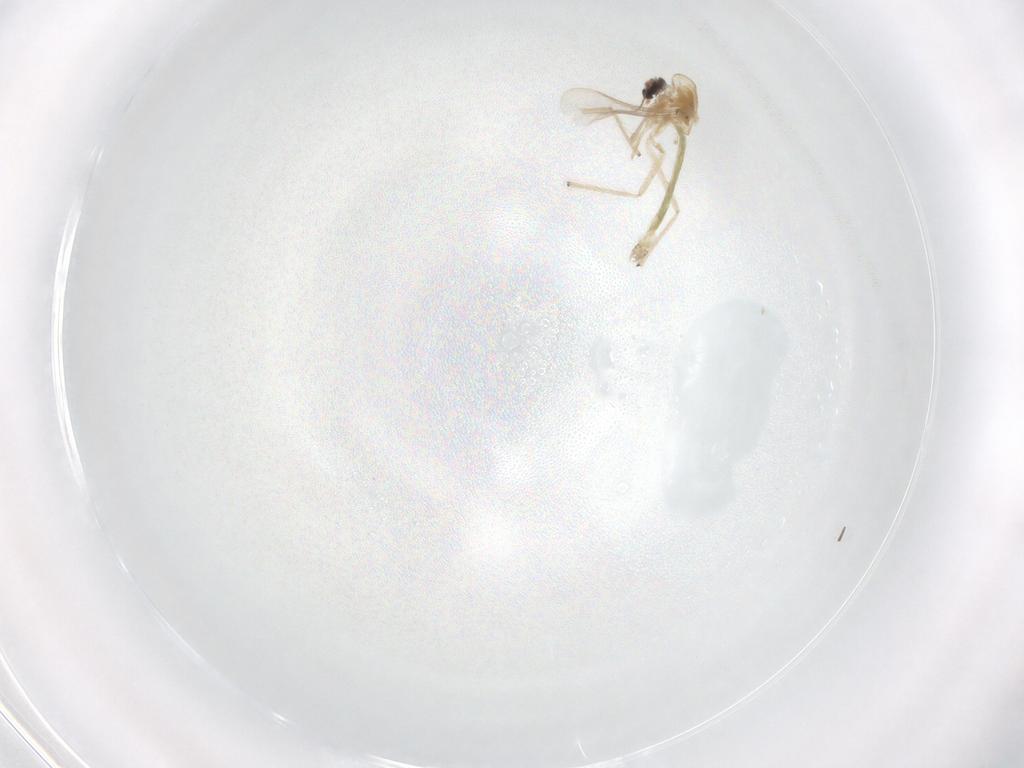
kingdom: Animalia
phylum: Arthropoda
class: Insecta
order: Diptera
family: Chironomidae
